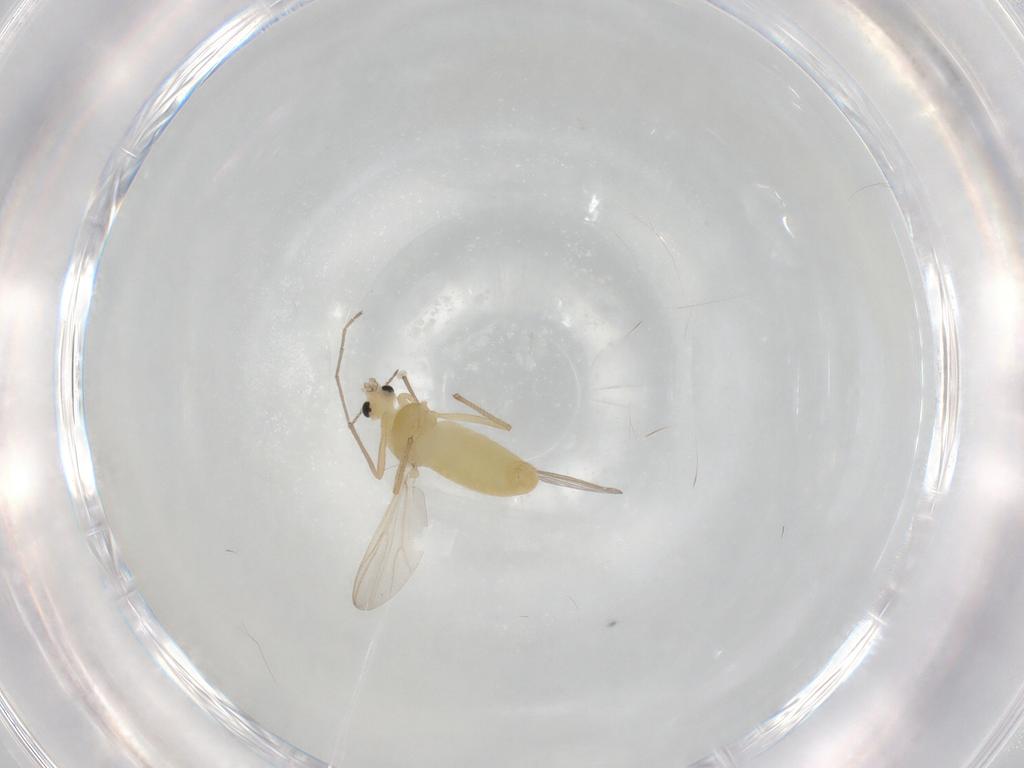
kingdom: Animalia
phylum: Arthropoda
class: Insecta
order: Diptera
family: Chironomidae
